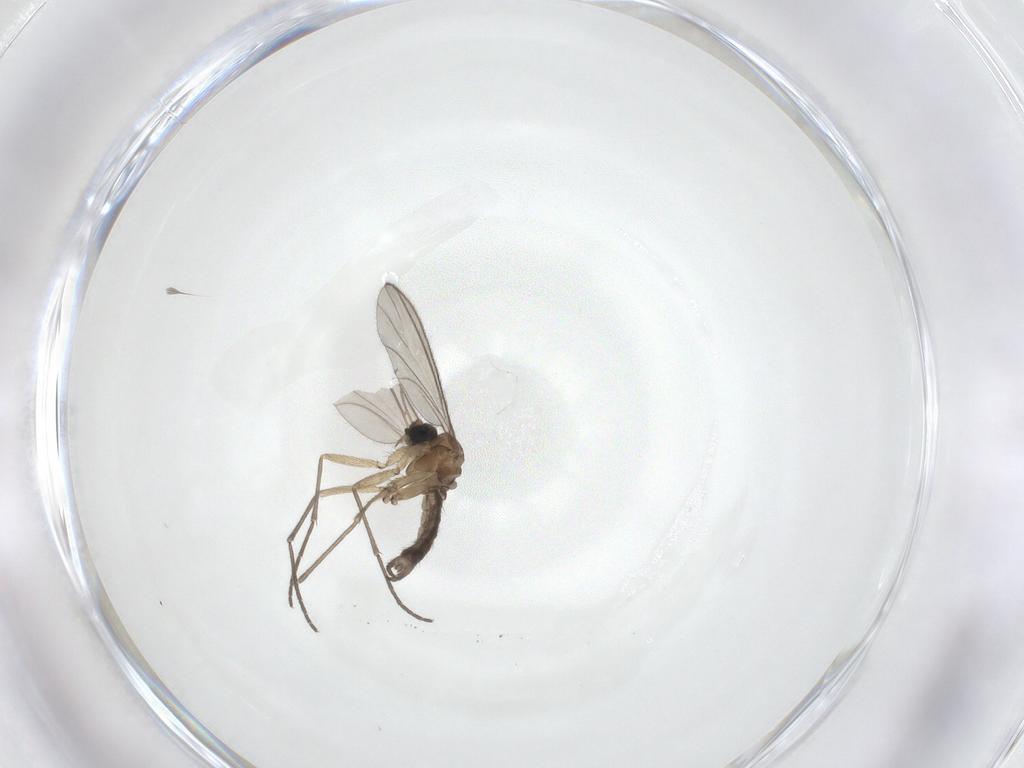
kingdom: Animalia
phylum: Arthropoda
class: Insecta
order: Diptera
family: Sciaridae
